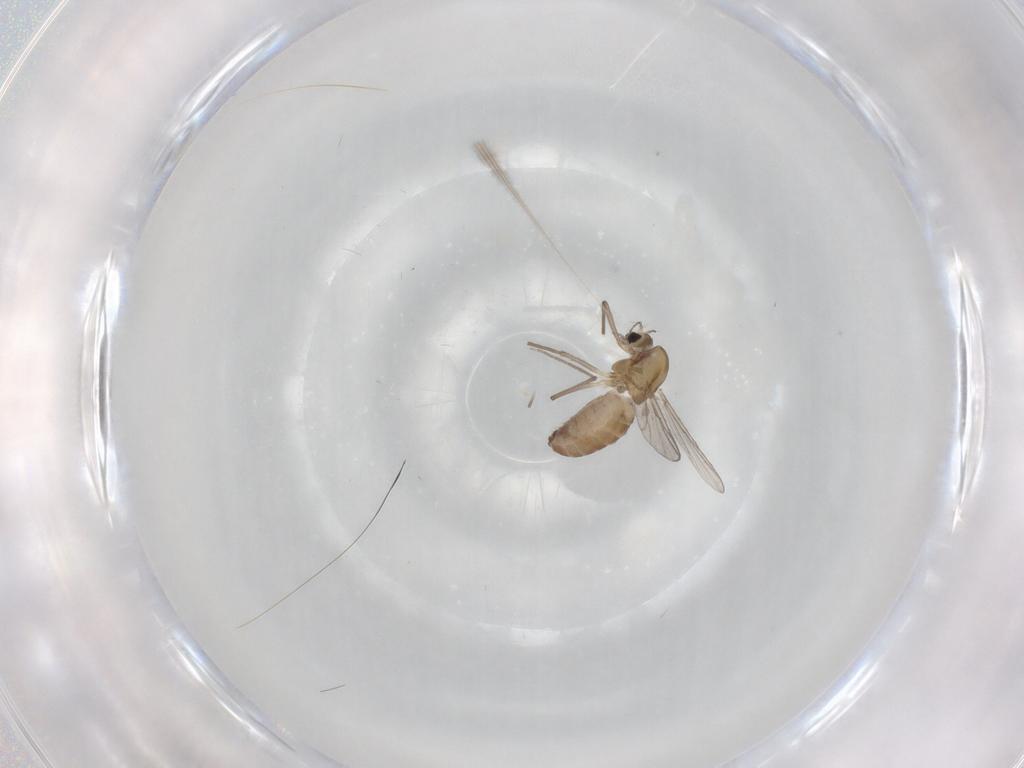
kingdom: Animalia
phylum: Arthropoda
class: Insecta
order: Diptera
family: Chironomidae
